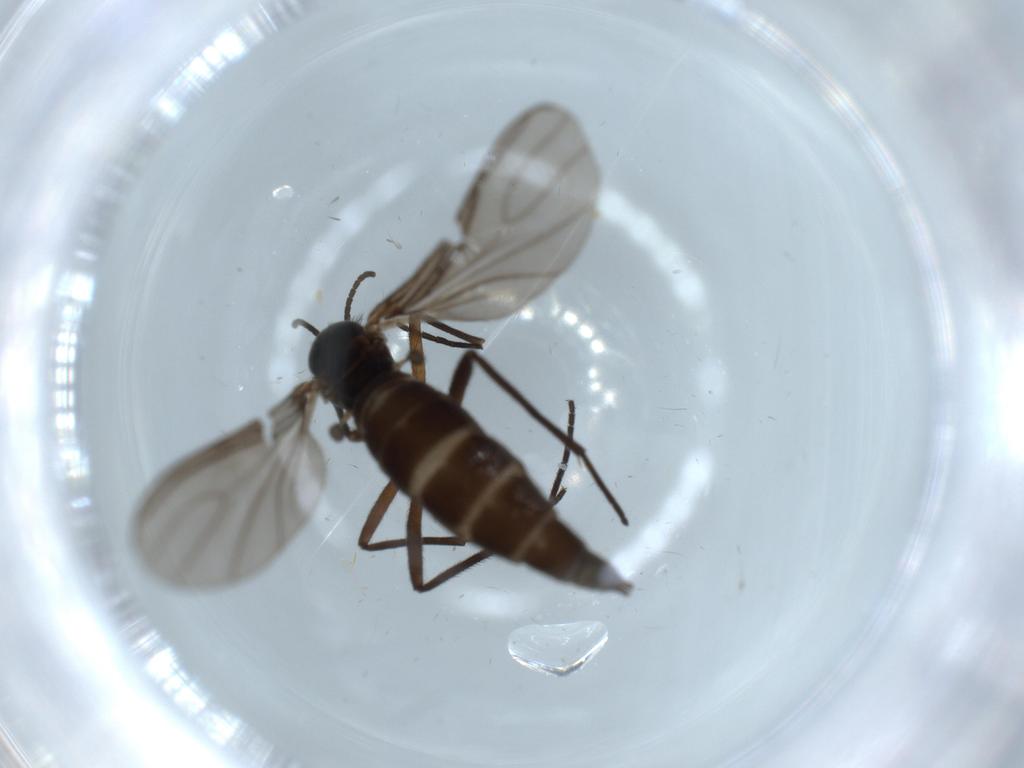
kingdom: Animalia
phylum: Arthropoda
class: Insecta
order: Diptera
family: Sciaridae
